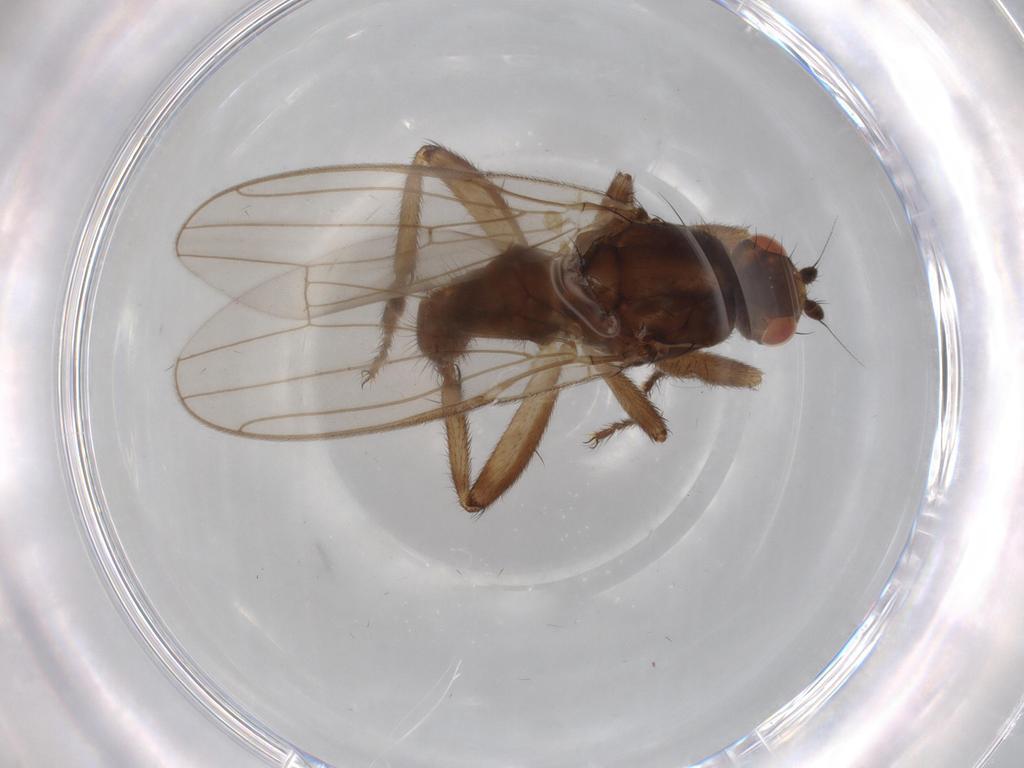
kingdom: Animalia
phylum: Arthropoda
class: Insecta
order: Diptera
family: Sphaeroceridae
